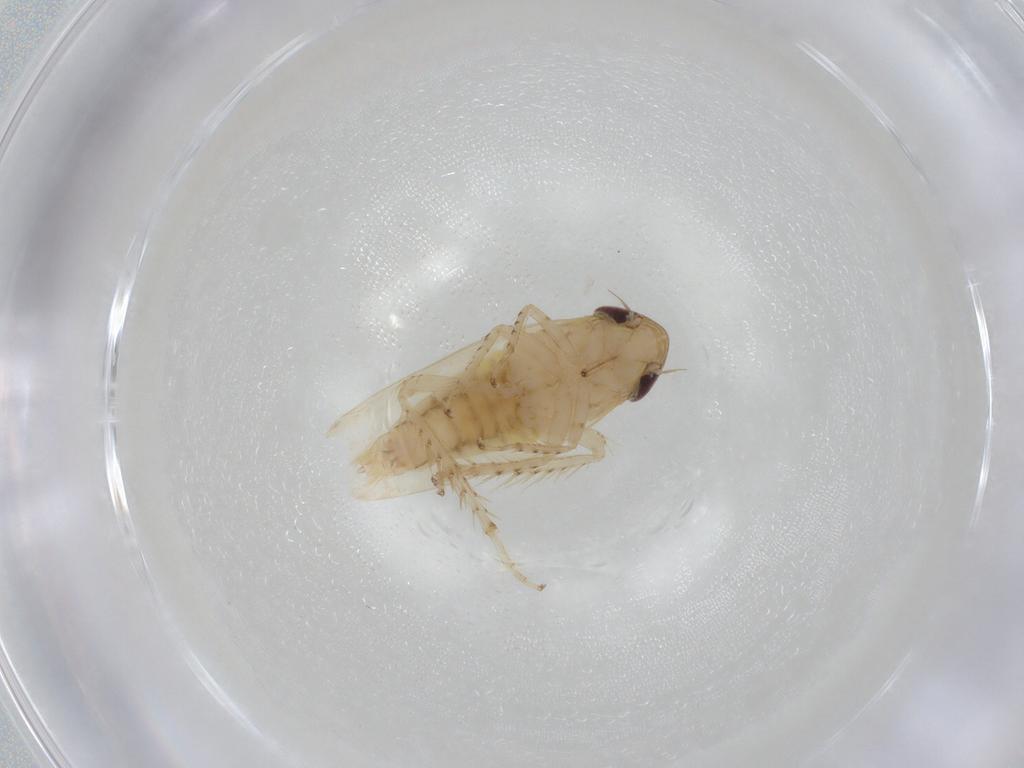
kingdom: Animalia
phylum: Arthropoda
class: Insecta
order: Hemiptera
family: Cicadellidae
